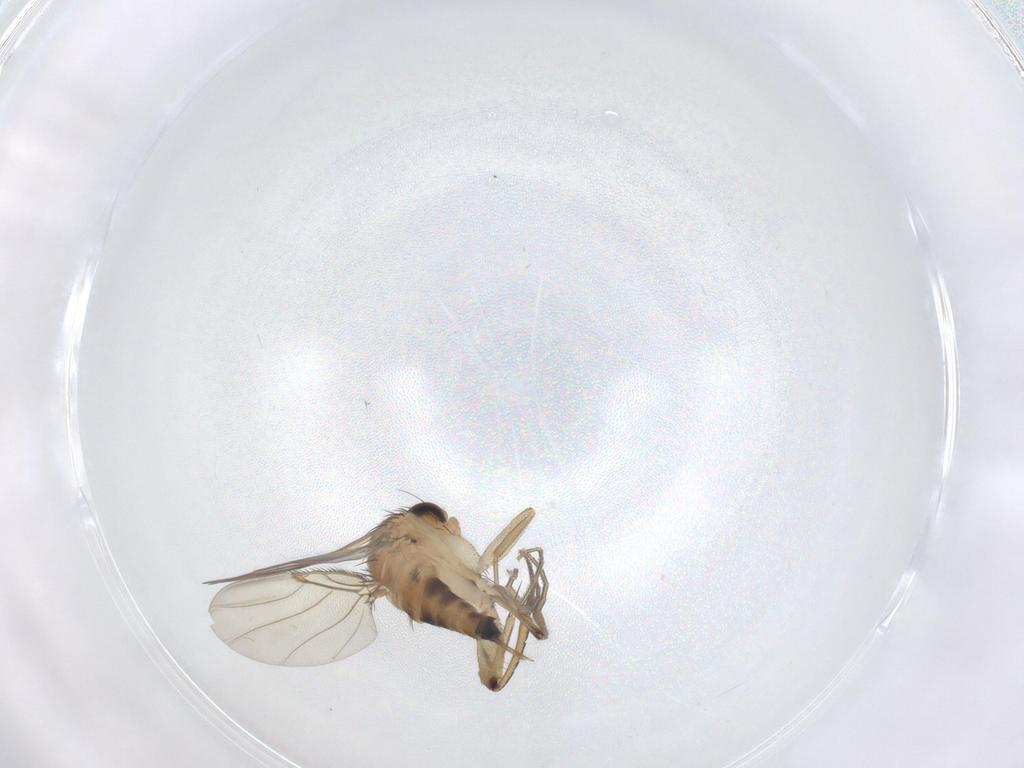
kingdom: Animalia
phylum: Arthropoda
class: Insecta
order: Diptera
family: Phoridae
